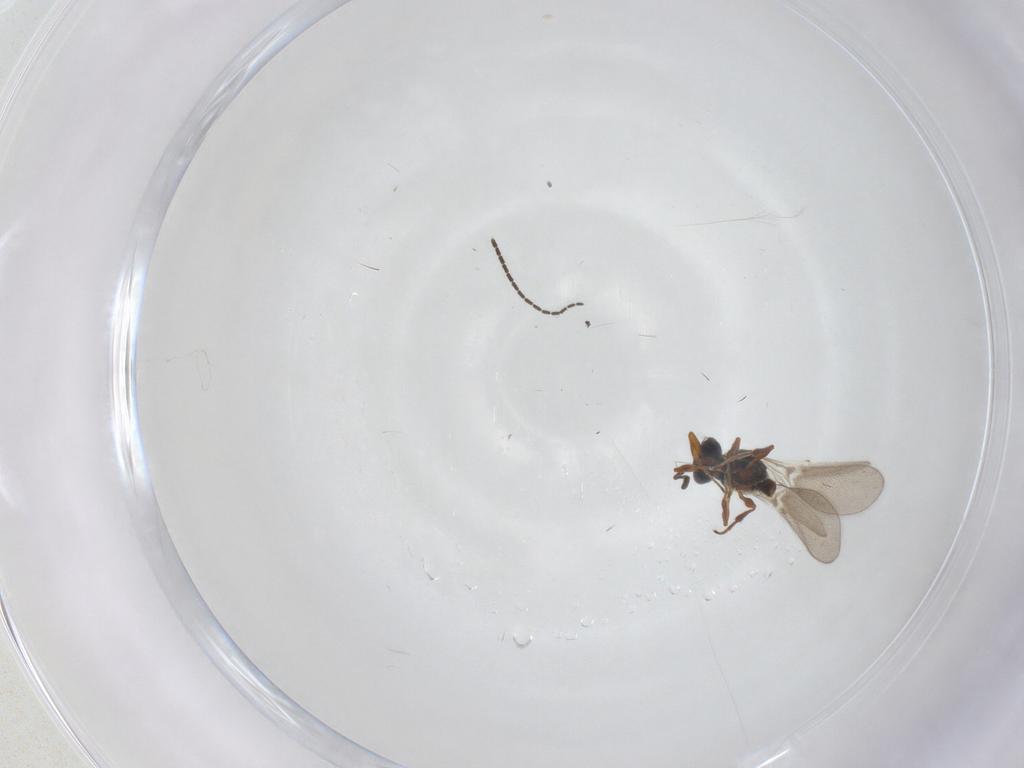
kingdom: Animalia
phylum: Arthropoda
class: Insecta
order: Hymenoptera
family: Platygastridae
